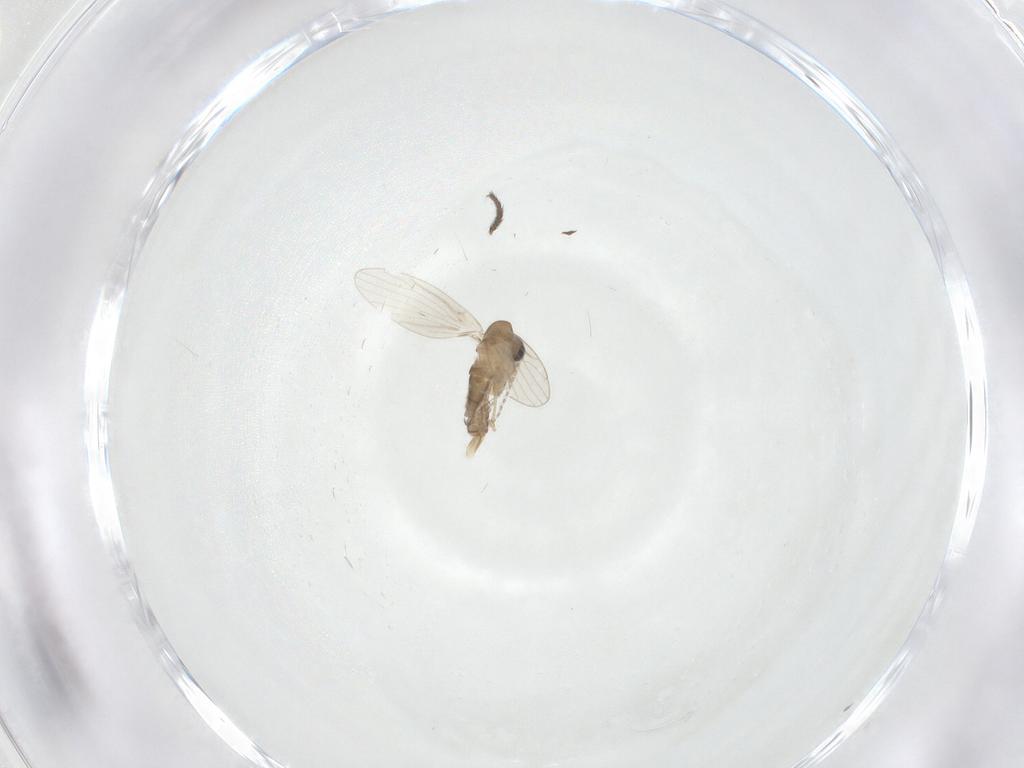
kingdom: Animalia
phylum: Arthropoda
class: Insecta
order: Diptera
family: Psychodidae
